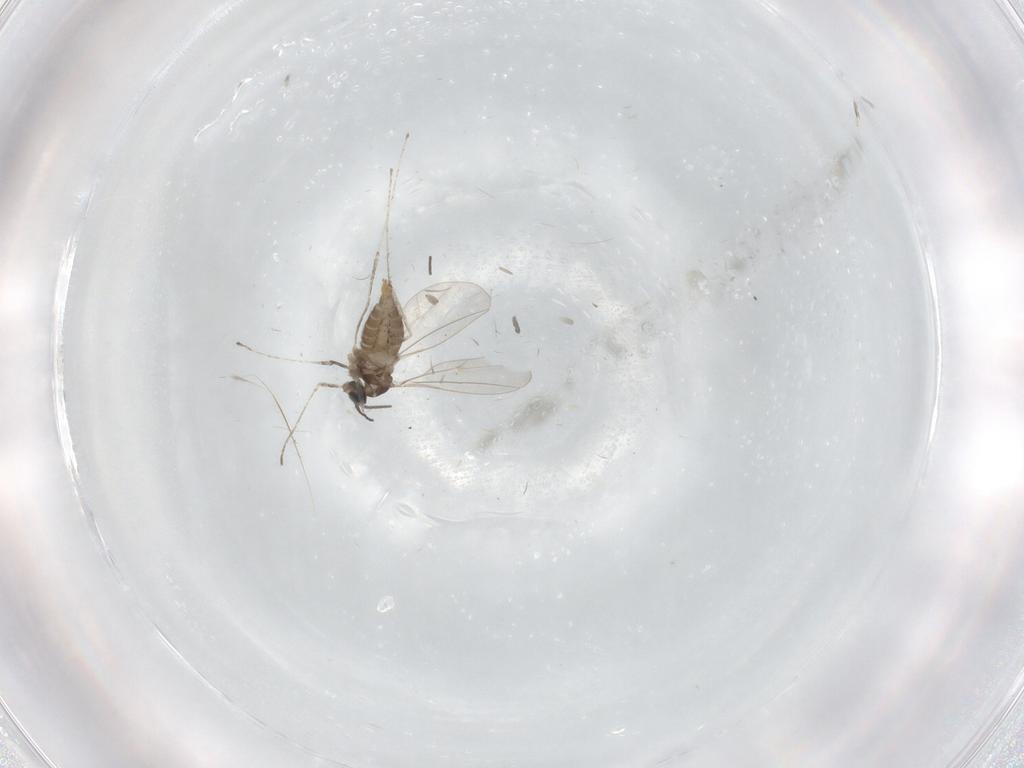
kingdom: Animalia
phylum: Arthropoda
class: Insecta
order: Diptera
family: Cecidomyiidae
